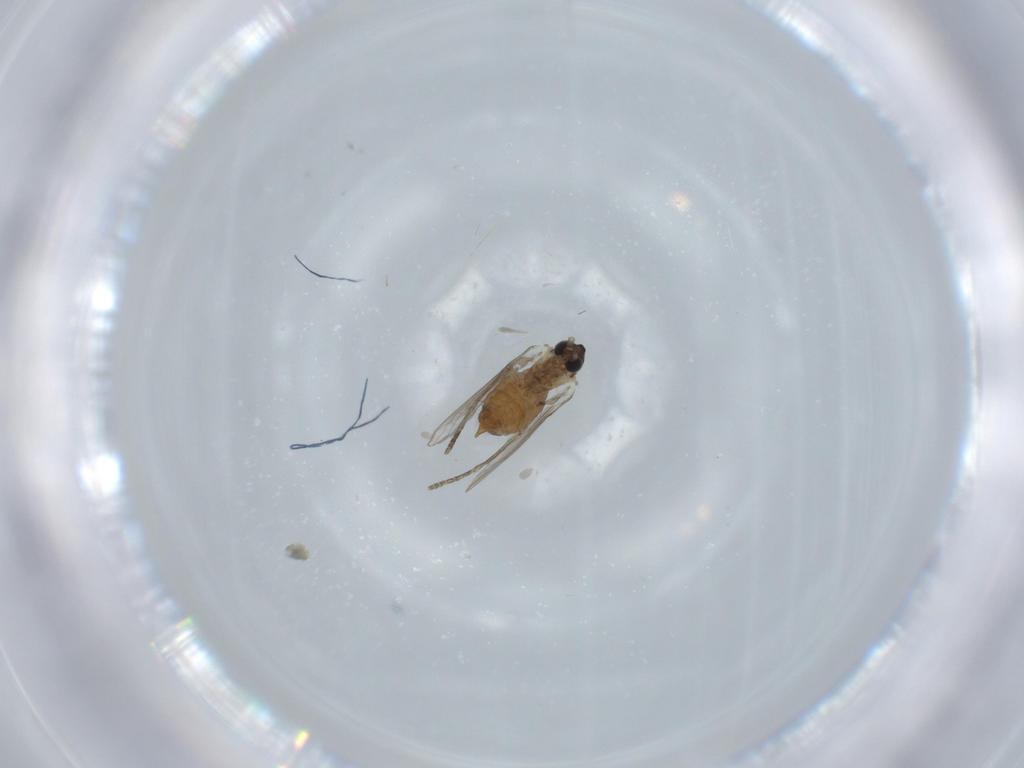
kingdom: Animalia
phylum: Arthropoda
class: Insecta
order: Diptera
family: Psychodidae
